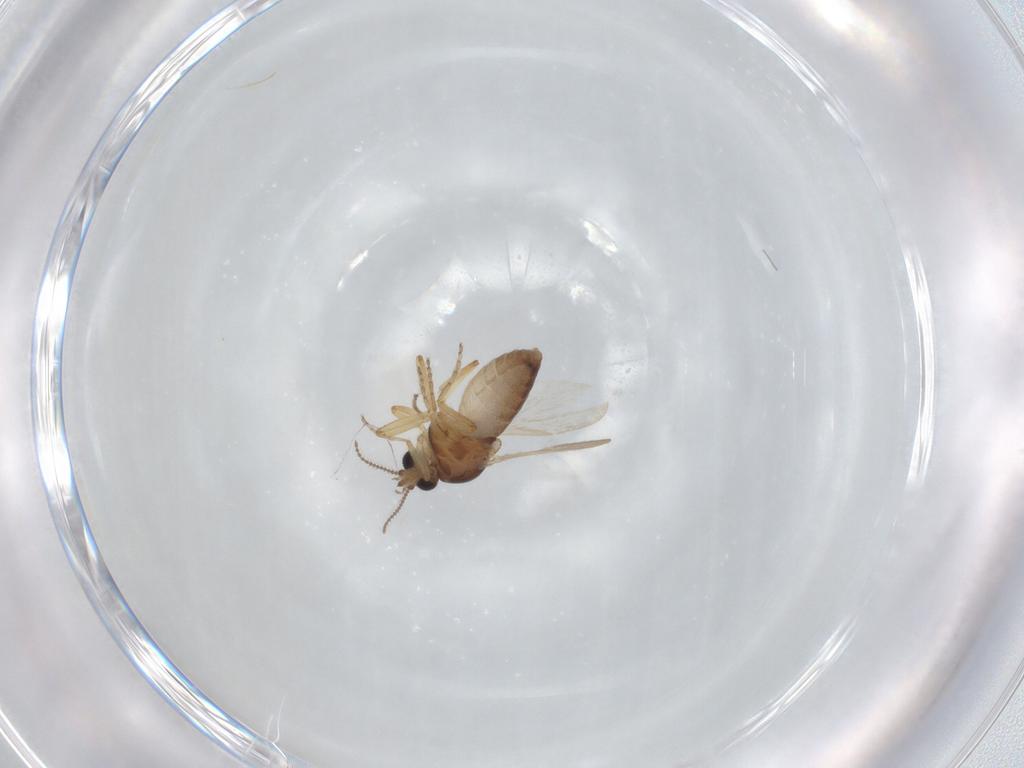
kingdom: Animalia
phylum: Arthropoda
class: Insecta
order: Diptera
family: Ceratopogonidae
